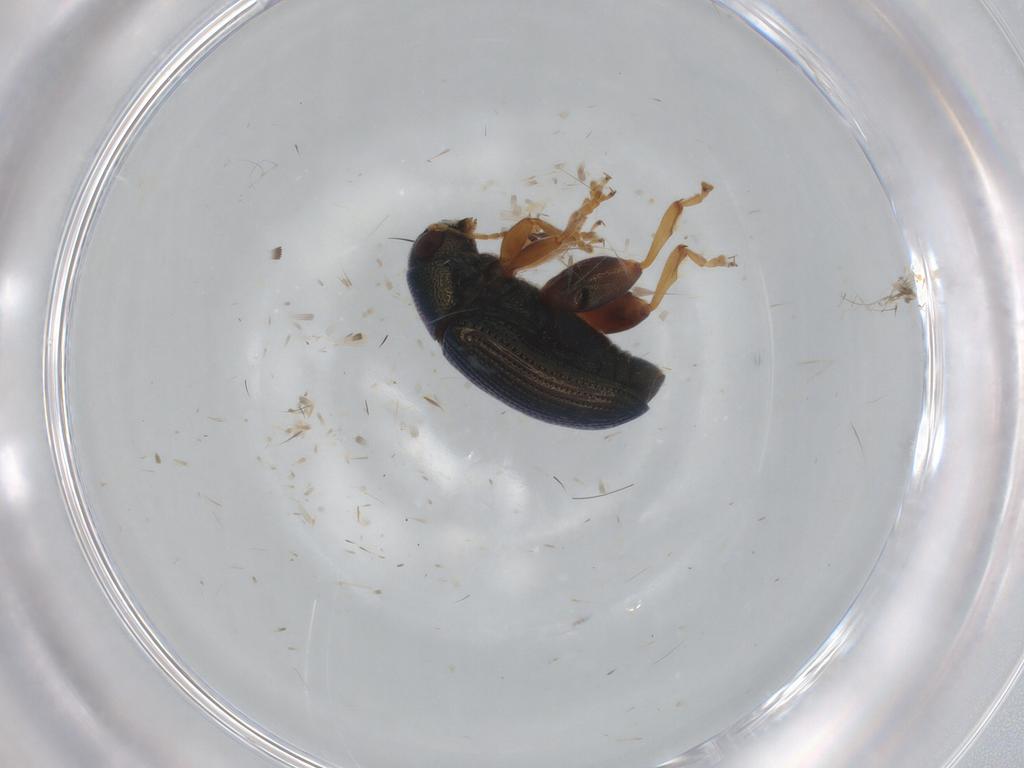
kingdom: Animalia
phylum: Arthropoda
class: Insecta
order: Coleoptera
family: Chrysomelidae
